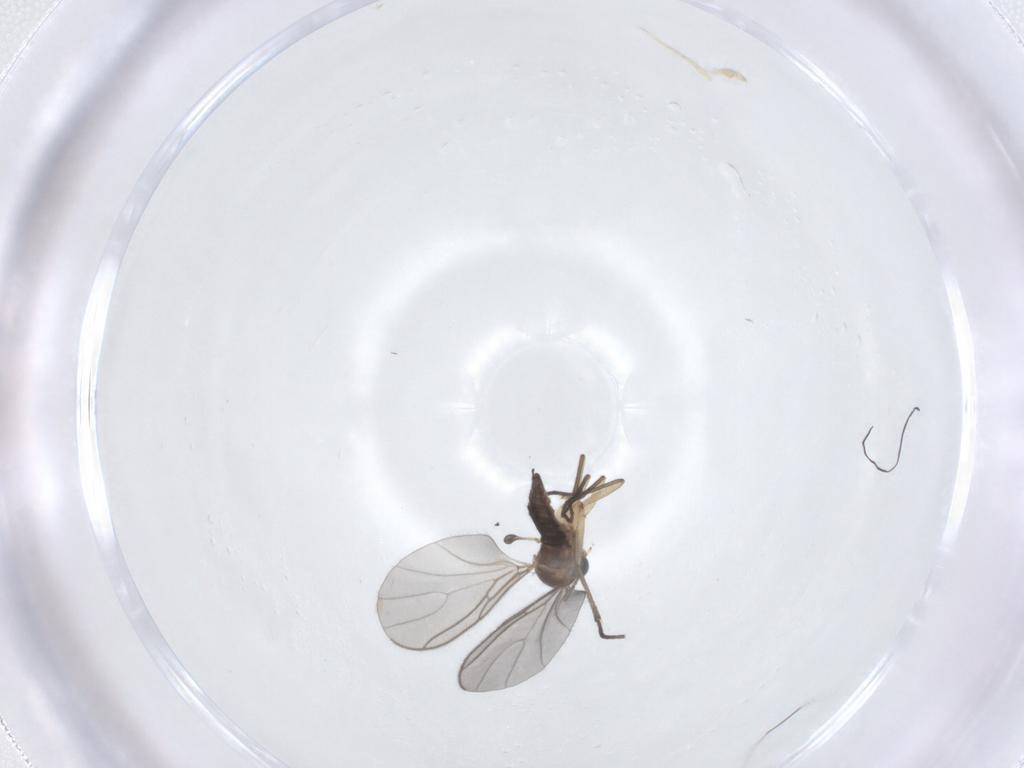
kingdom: Animalia
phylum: Arthropoda
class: Insecta
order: Diptera
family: Sciaridae
